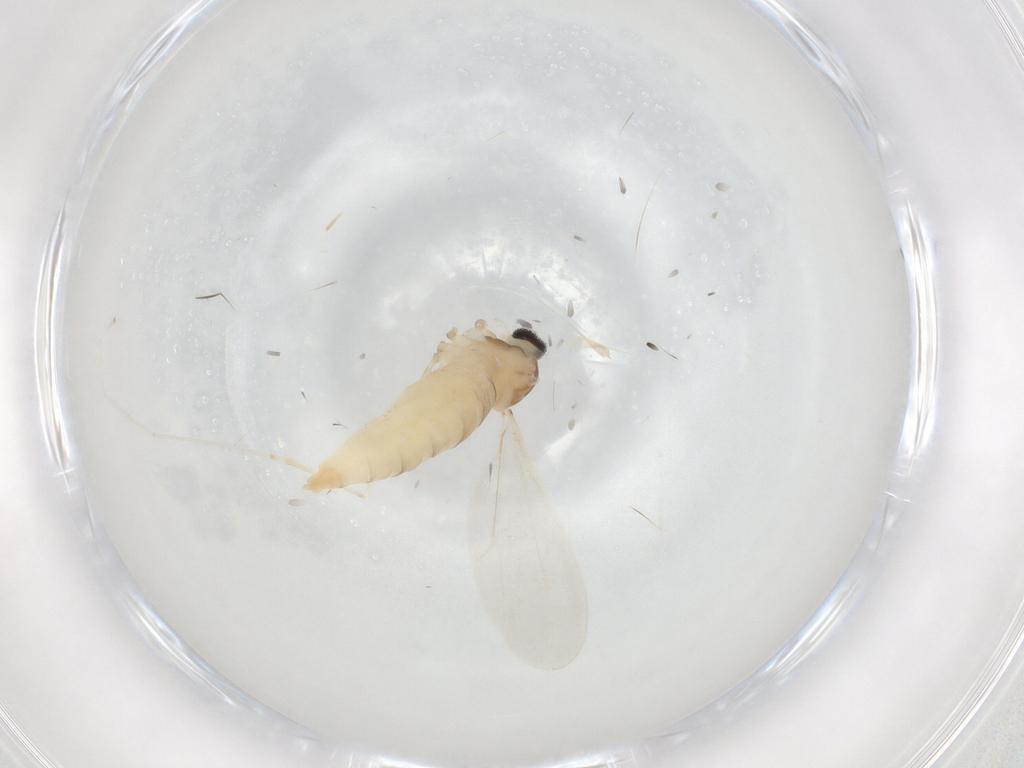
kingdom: Animalia
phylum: Arthropoda
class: Insecta
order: Diptera
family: Cecidomyiidae
